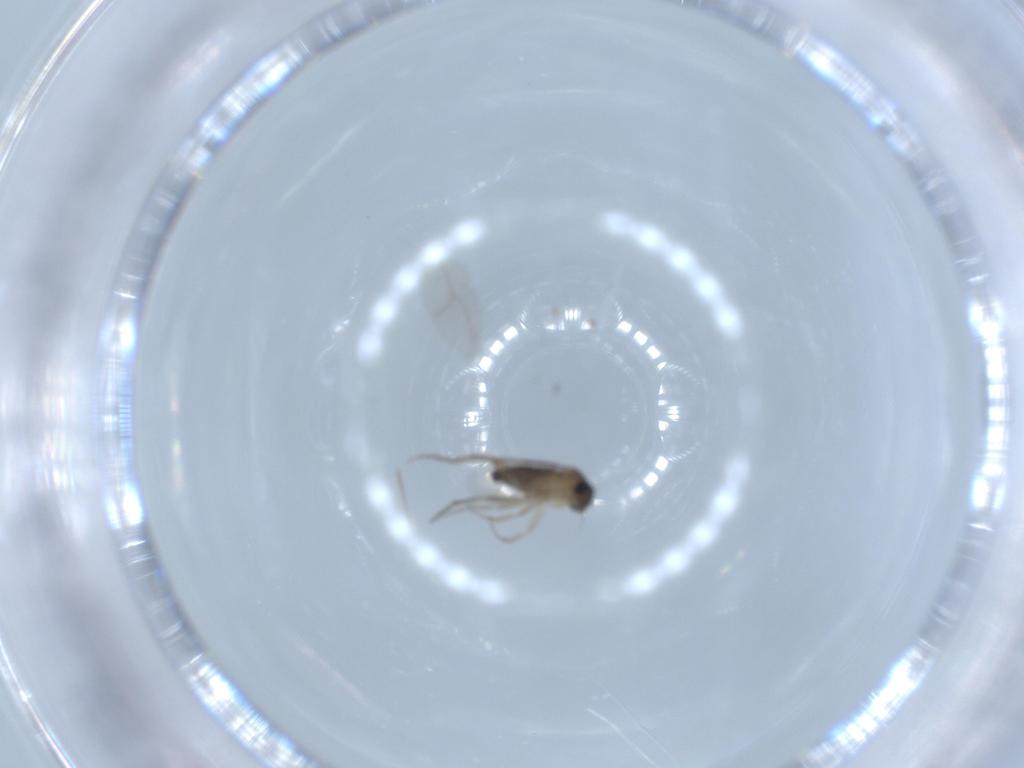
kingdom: Animalia
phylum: Arthropoda
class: Insecta
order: Diptera
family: Phoridae
